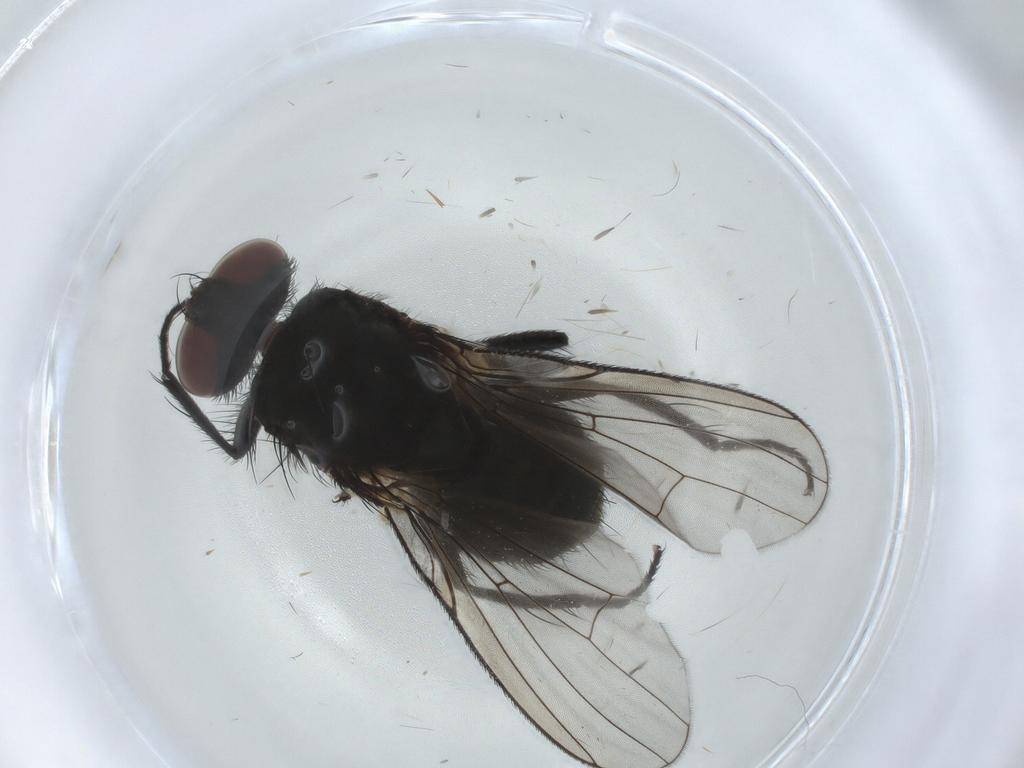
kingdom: Animalia
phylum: Arthropoda
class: Insecta
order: Diptera
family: Muscidae
